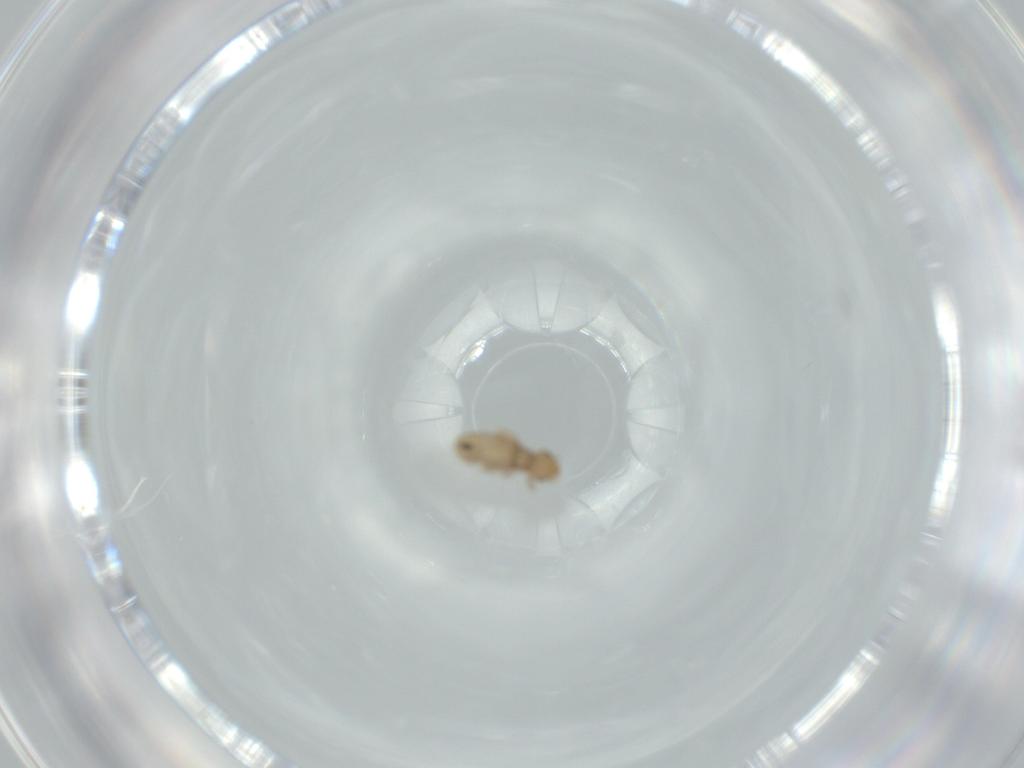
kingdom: Animalia
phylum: Arthropoda
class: Insecta
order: Psocodea
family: Liposcelididae
